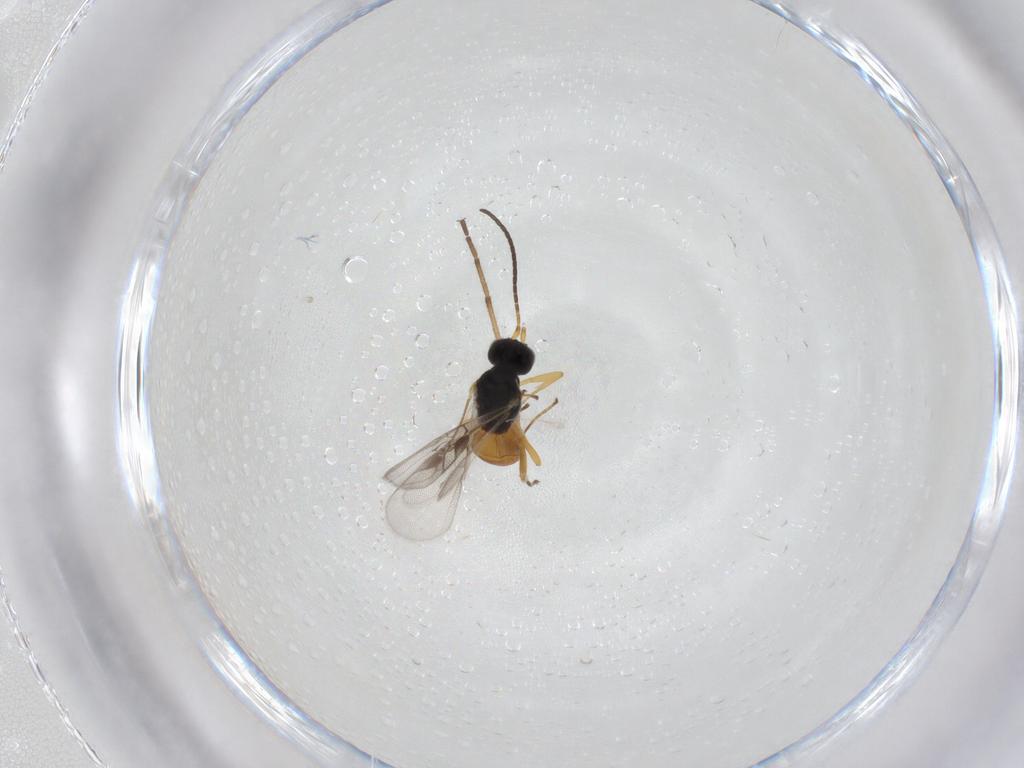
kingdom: Animalia
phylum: Arthropoda
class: Insecta
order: Hymenoptera
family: Braconidae
